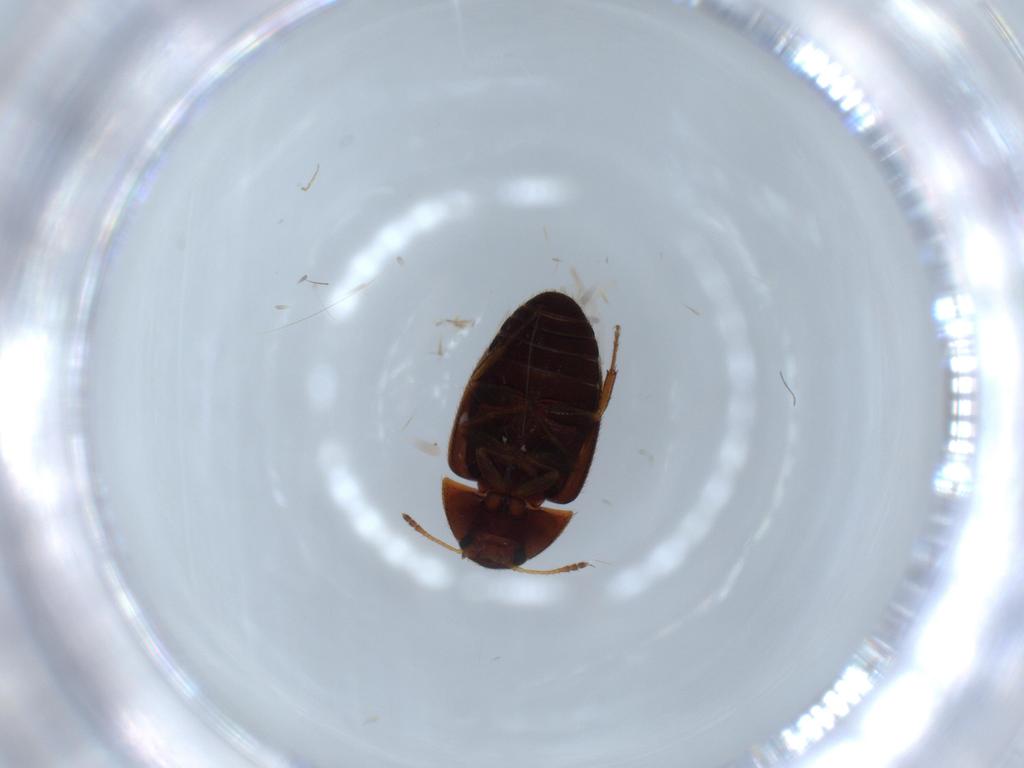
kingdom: Animalia
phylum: Arthropoda
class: Insecta
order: Coleoptera
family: Mycetophagidae
